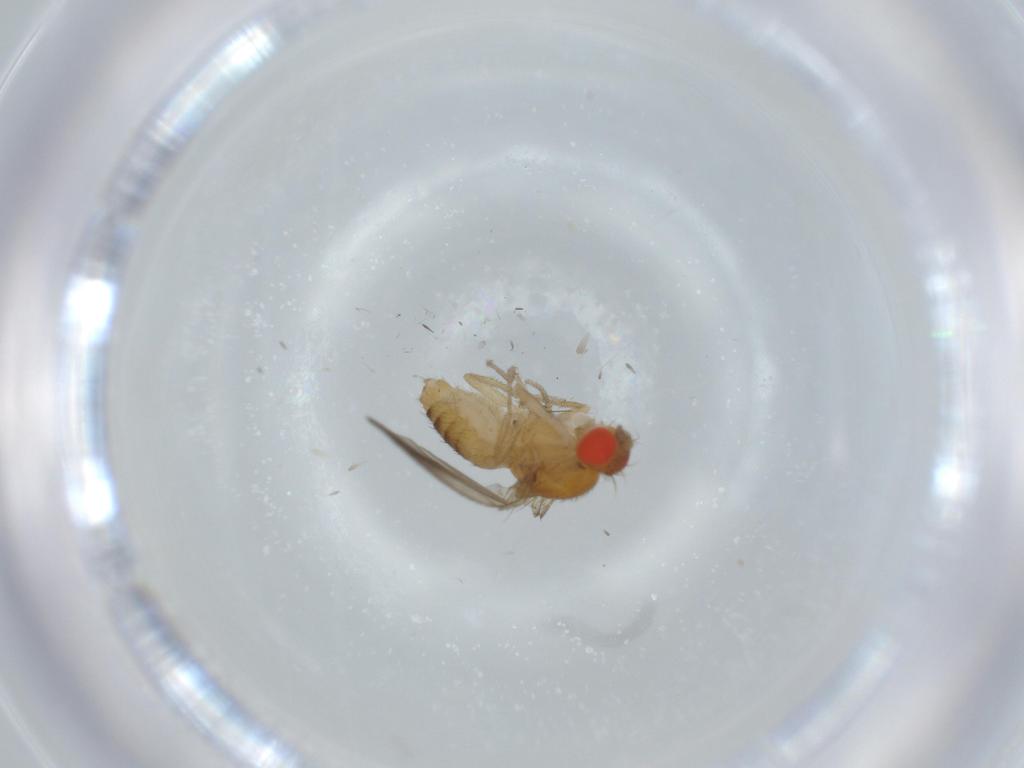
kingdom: Animalia
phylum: Arthropoda
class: Insecta
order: Diptera
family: Drosophilidae
